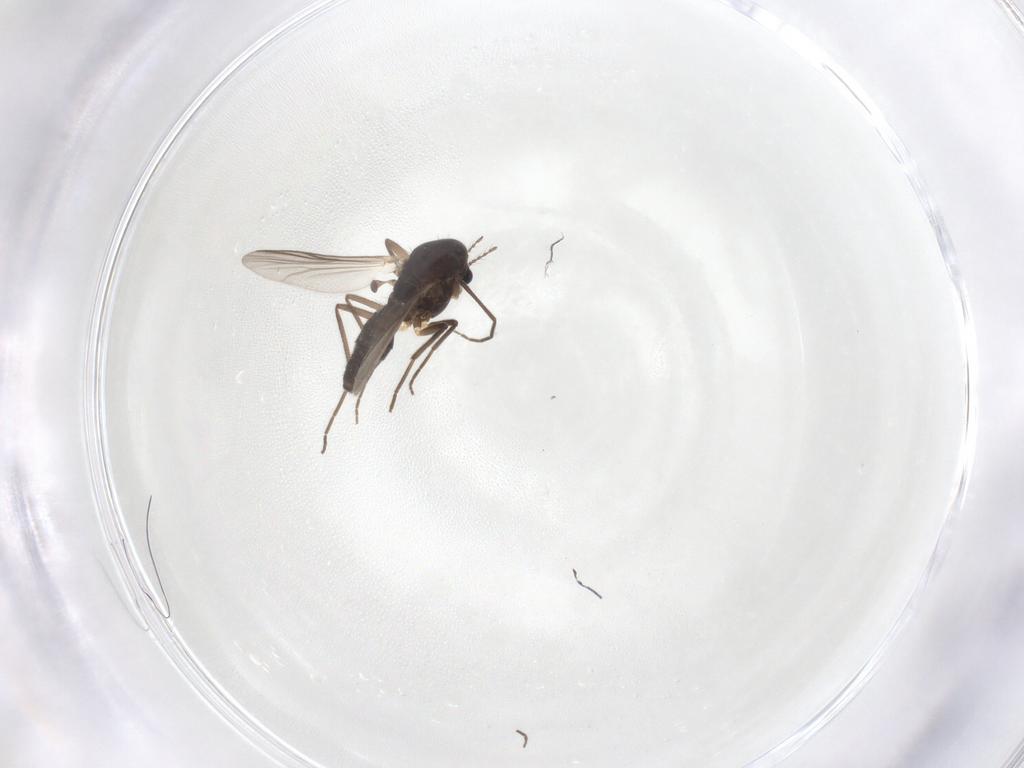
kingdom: Animalia
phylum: Arthropoda
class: Insecta
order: Diptera
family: Chironomidae
